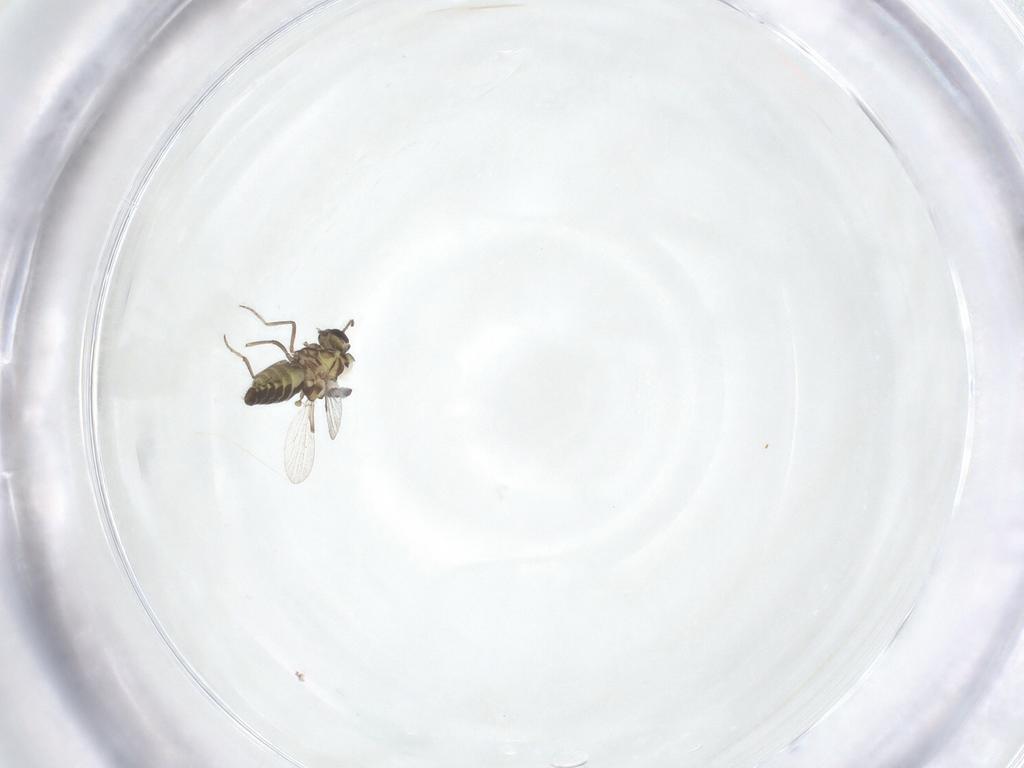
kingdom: Animalia
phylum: Arthropoda
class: Insecta
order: Diptera
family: Ceratopogonidae
